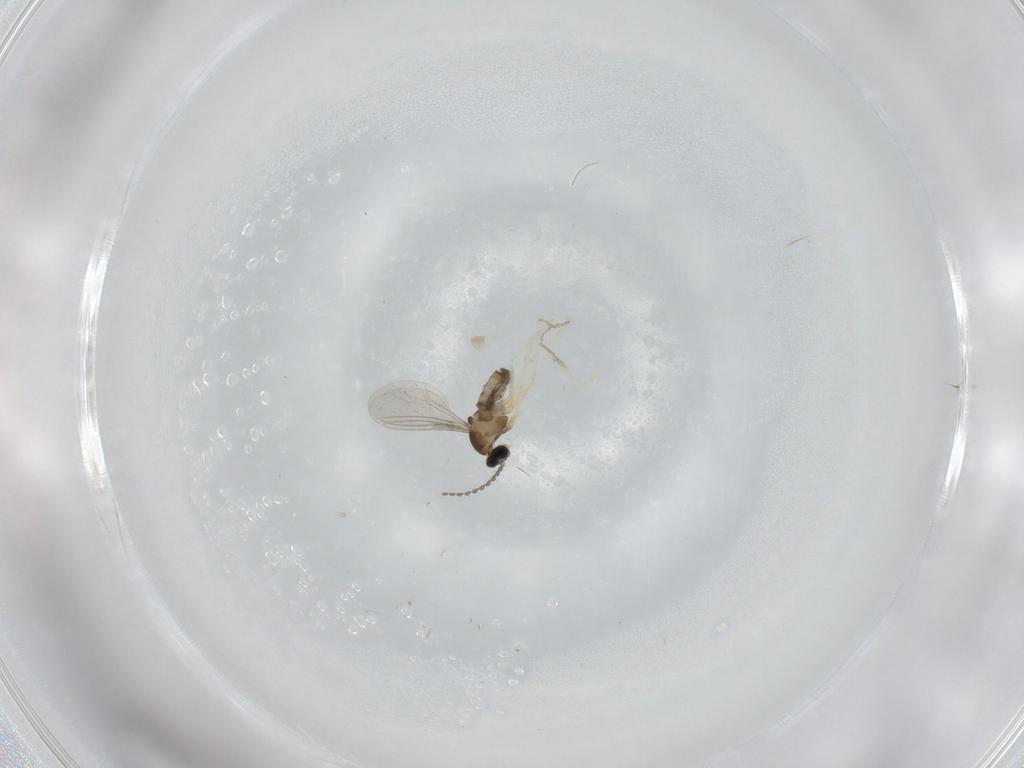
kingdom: Animalia
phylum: Arthropoda
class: Insecta
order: Diptera
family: Cecidomyiidae
